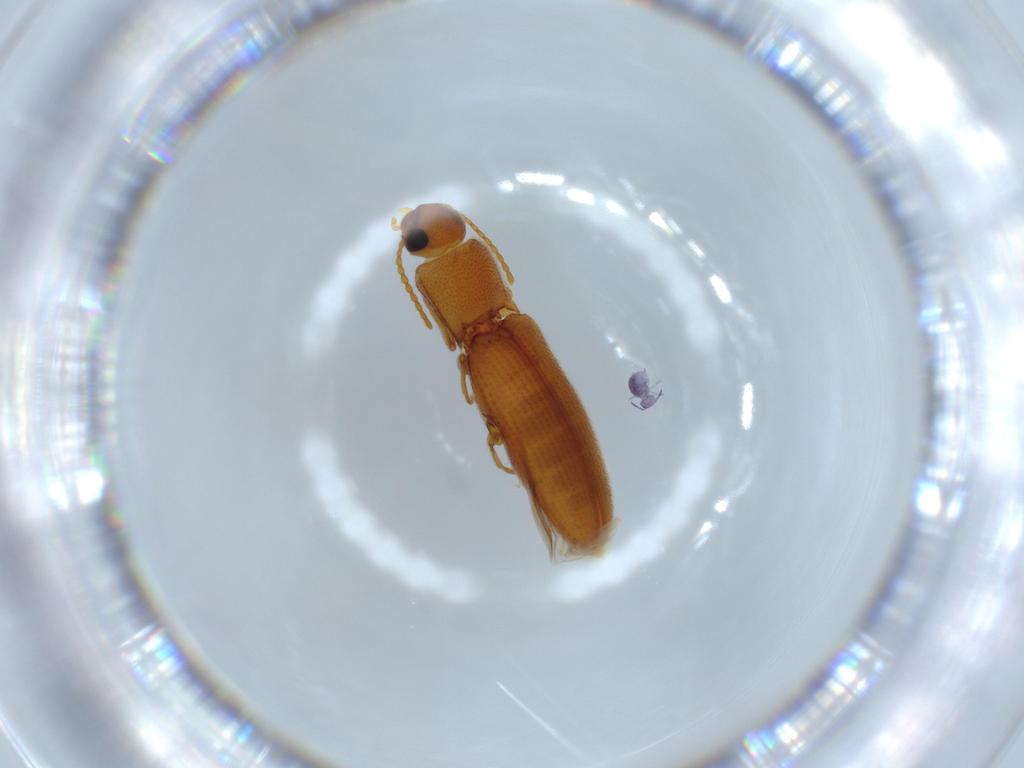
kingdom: Animalia
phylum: Arthropoda
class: Insecta
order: Coleoptera
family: Elateridae
